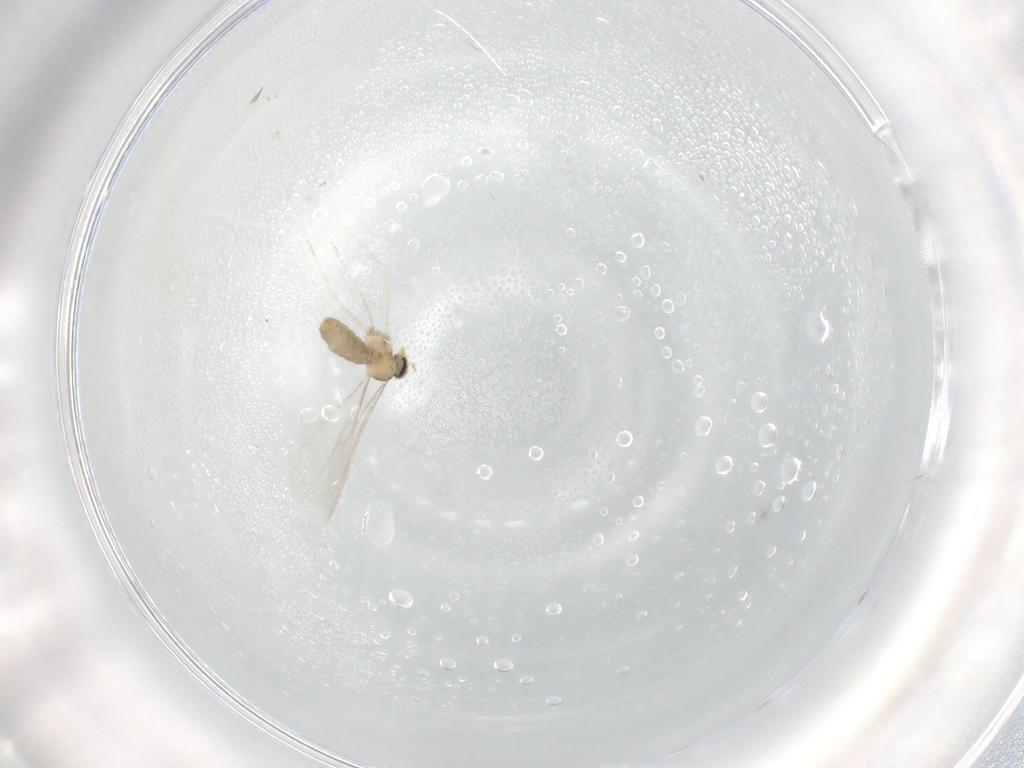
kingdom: Animalia
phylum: Arthropoda
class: Insecta
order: Diptera
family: Cecidomyiidae
